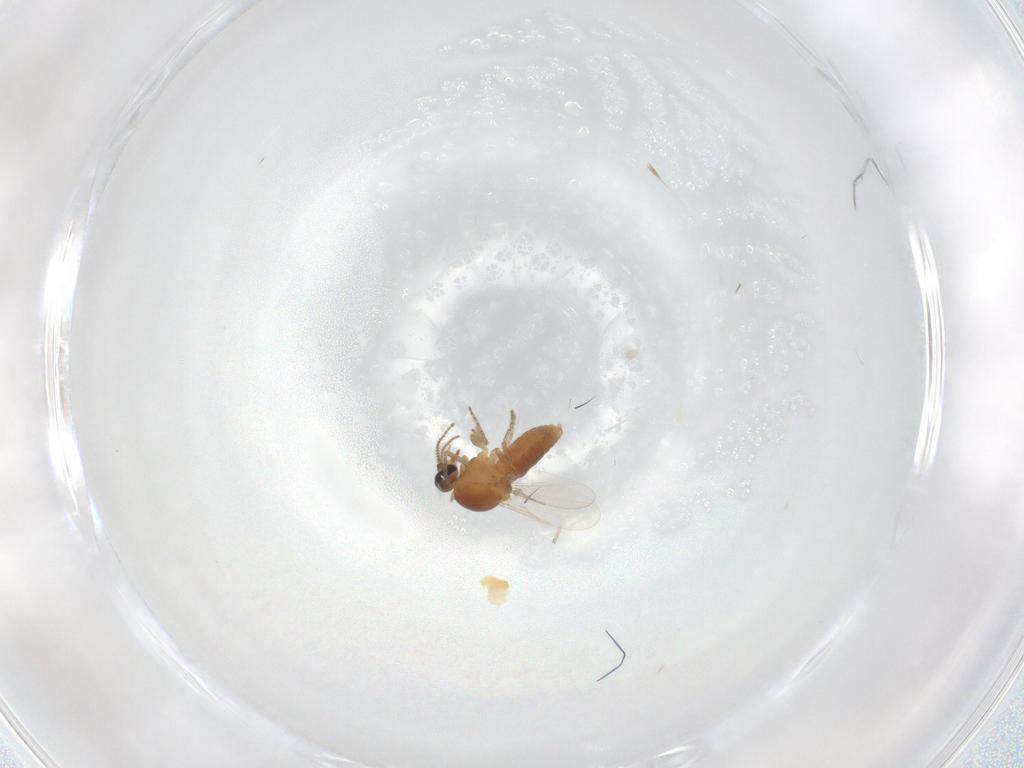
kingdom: Animalia
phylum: Arthropoda
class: Insecta
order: Diptera
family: Ceratopogonidae
